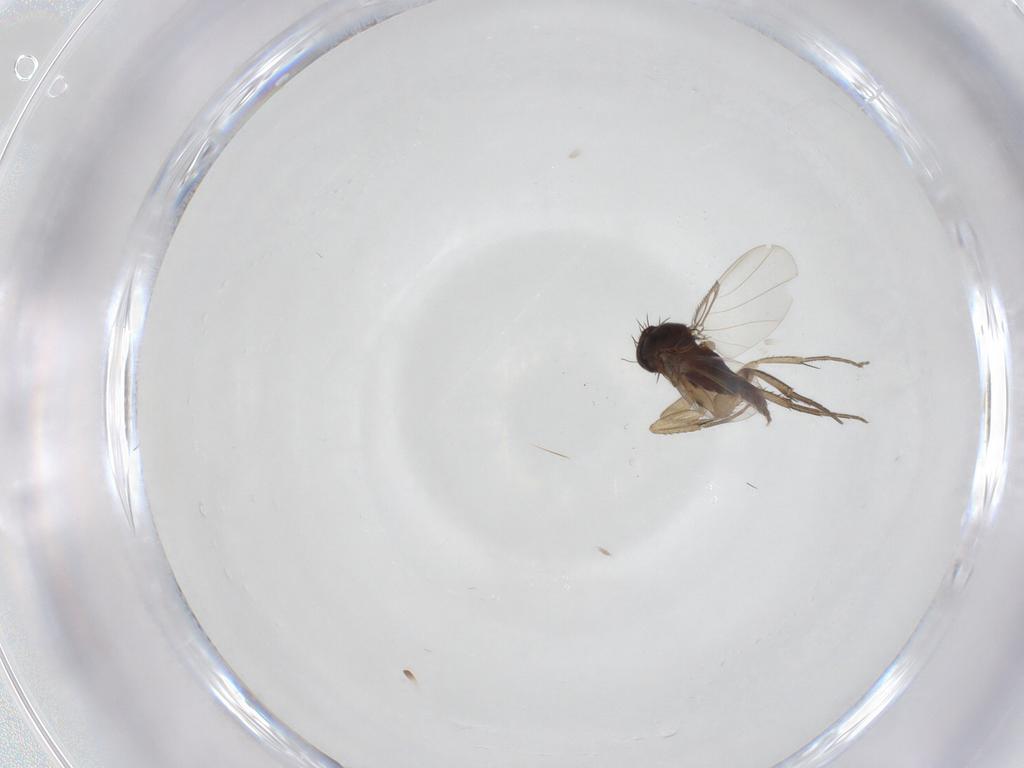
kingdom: Animalia
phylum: Arthropoda
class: Insecta
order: Diptera
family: Phoridae
